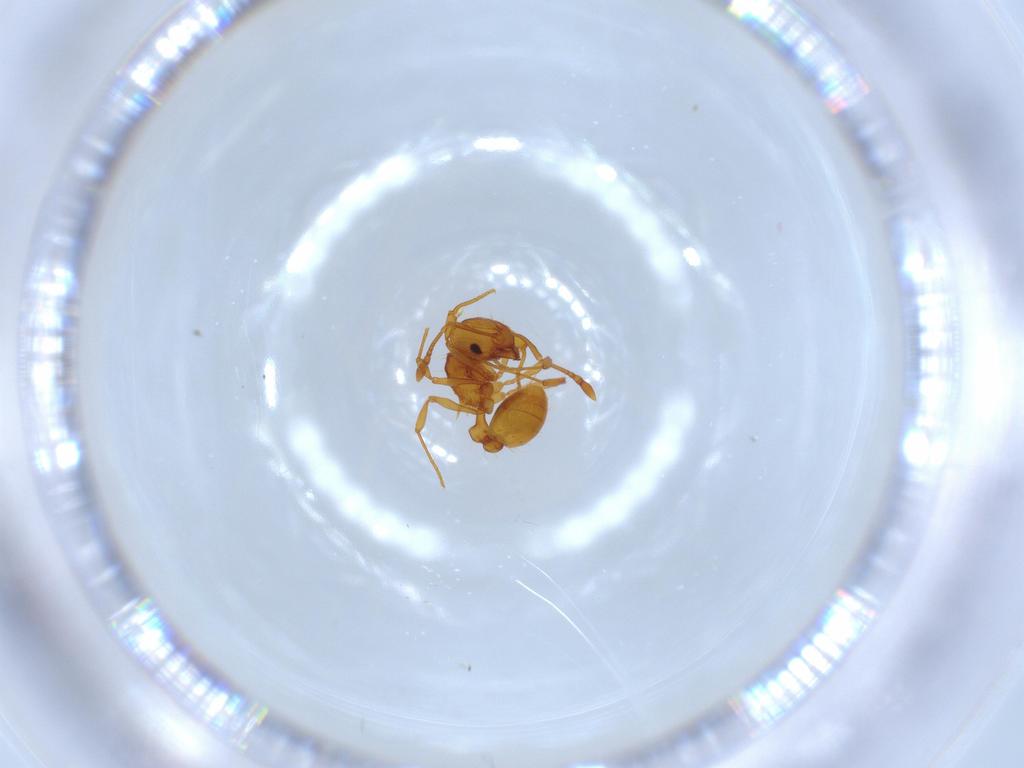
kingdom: Animalia
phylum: Arthropoda
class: Insecta
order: Hymenoptera
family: Formicidae
